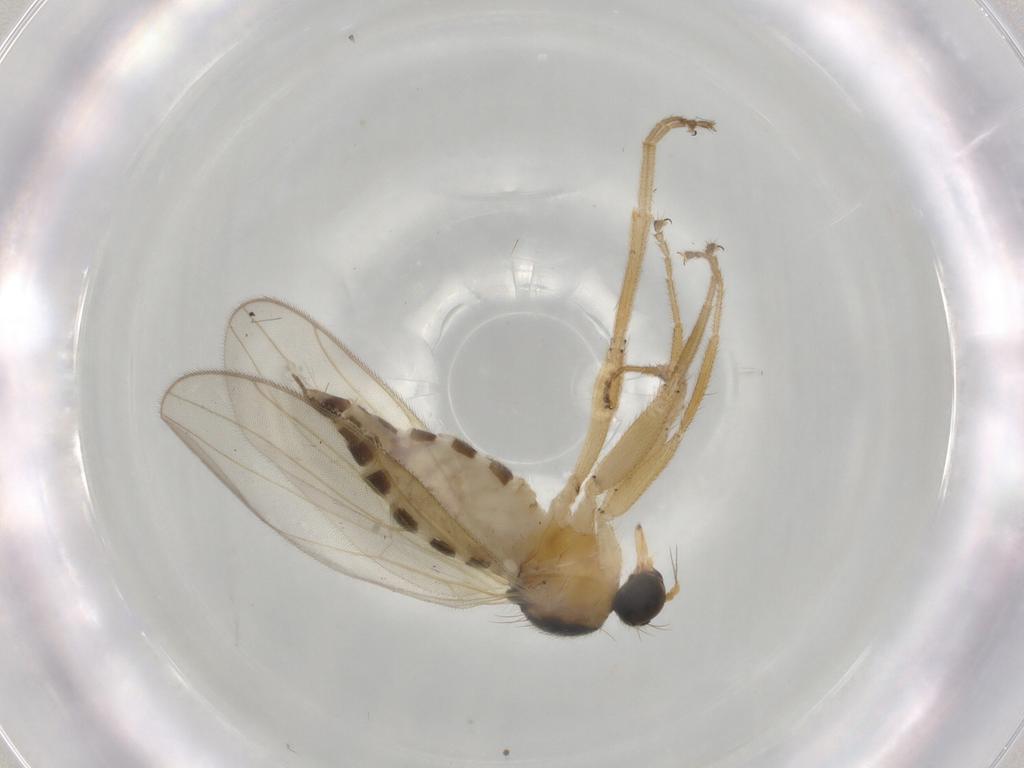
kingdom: Animalia
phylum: Arthropoda
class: Insecta
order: Diptera
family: Hybotidae
